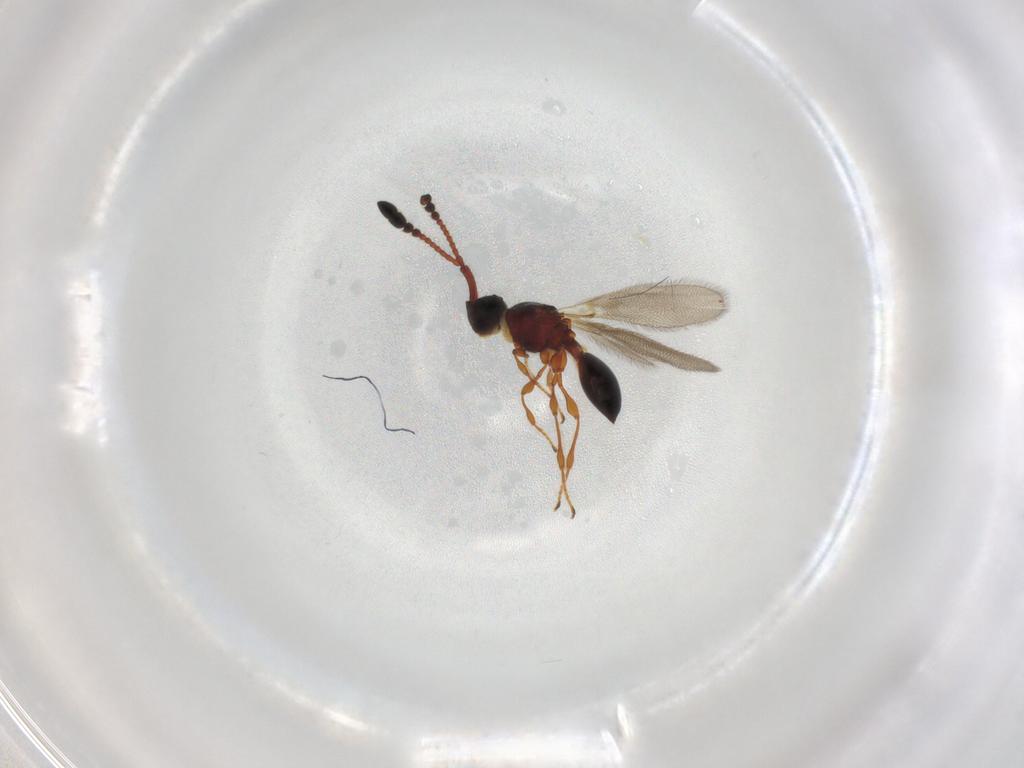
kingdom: Animalia
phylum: Arthropoda
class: Insecta
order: Hymenoptera
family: Diapriidae
